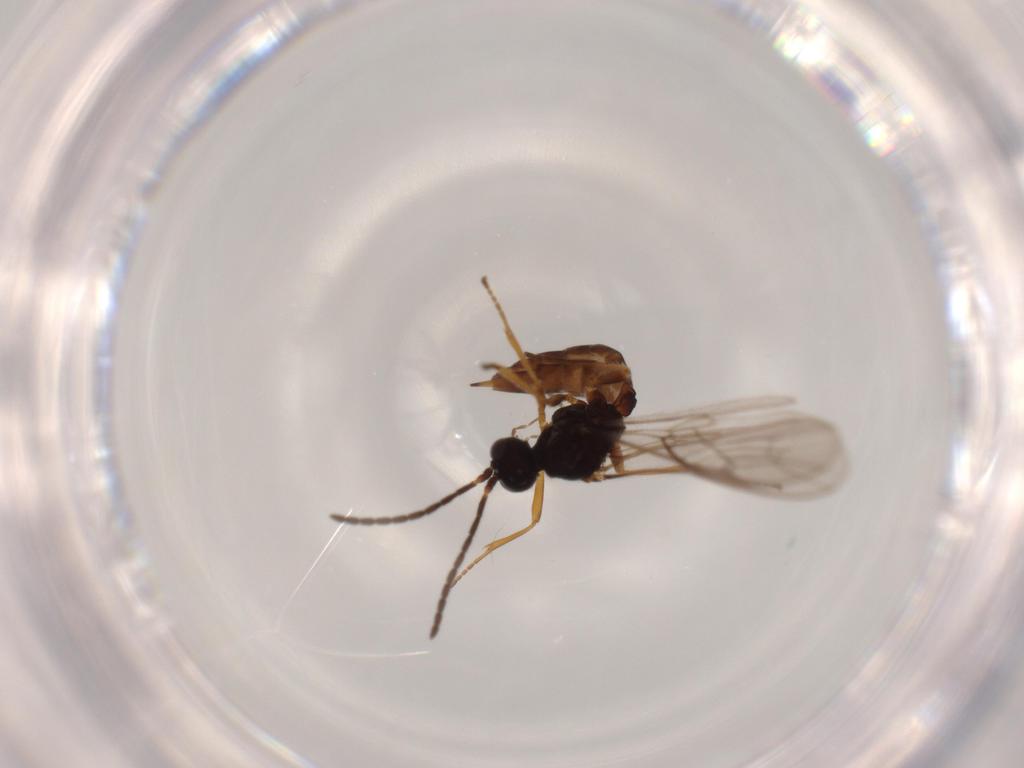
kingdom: Animalia
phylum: Arthropoda
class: Insecta
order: Hymenoptera
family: Braconidae
